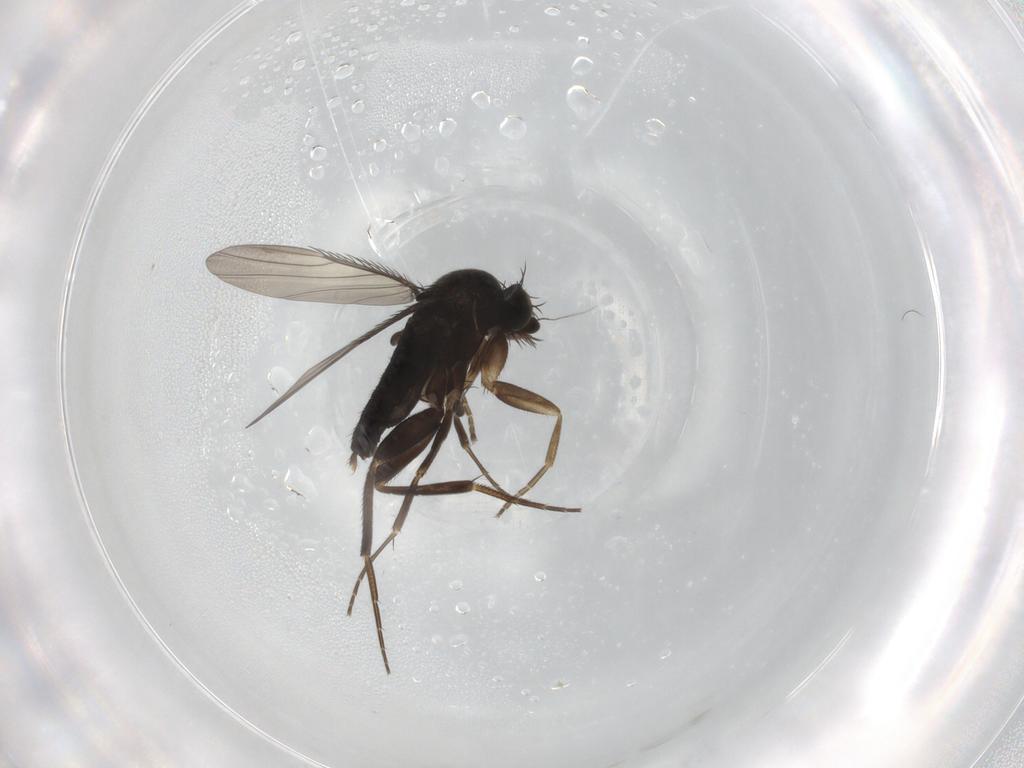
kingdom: Animalia
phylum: Arthropoda
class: Insecta
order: Diptera
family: Phoridae
